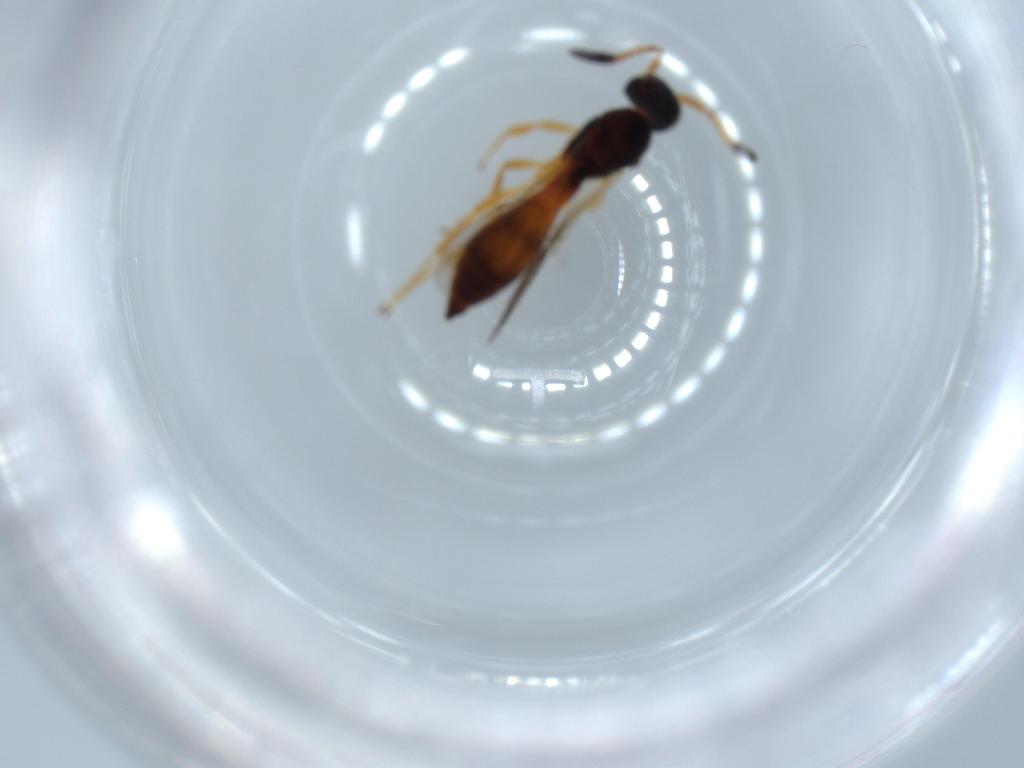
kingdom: Animalia
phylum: Arthropoda
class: Insecta
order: Hymenoptera
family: Scelionidae
